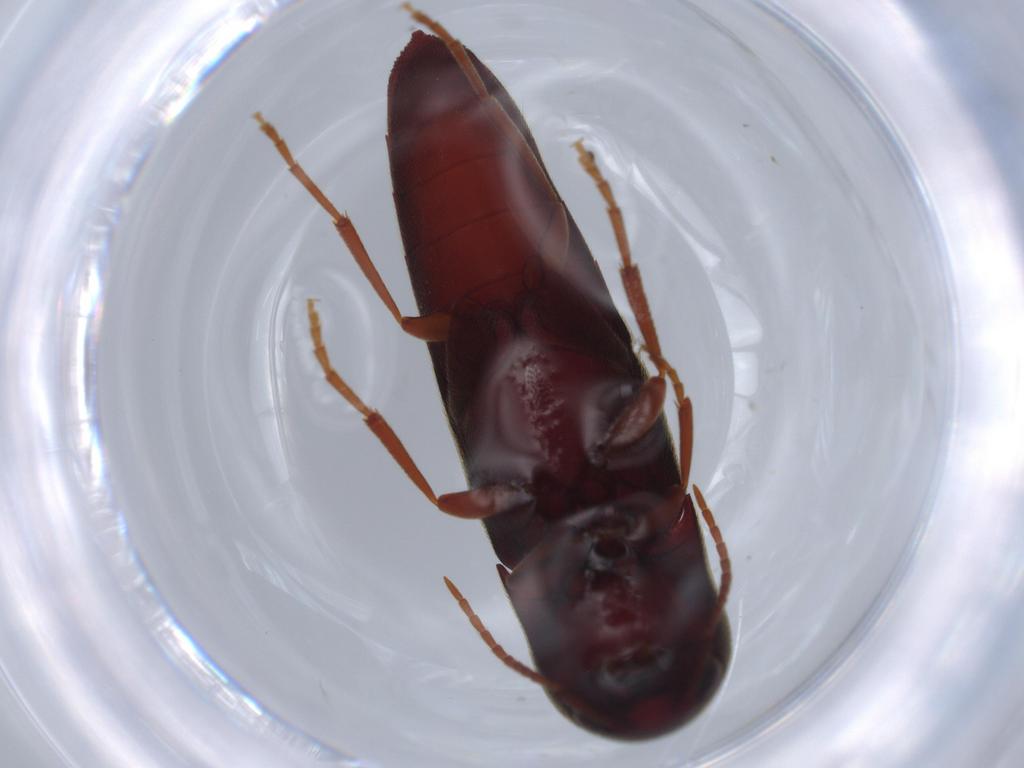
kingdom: Animalia
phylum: Arthropoda
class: Insecta
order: Coleoptera
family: Eucnemidae
